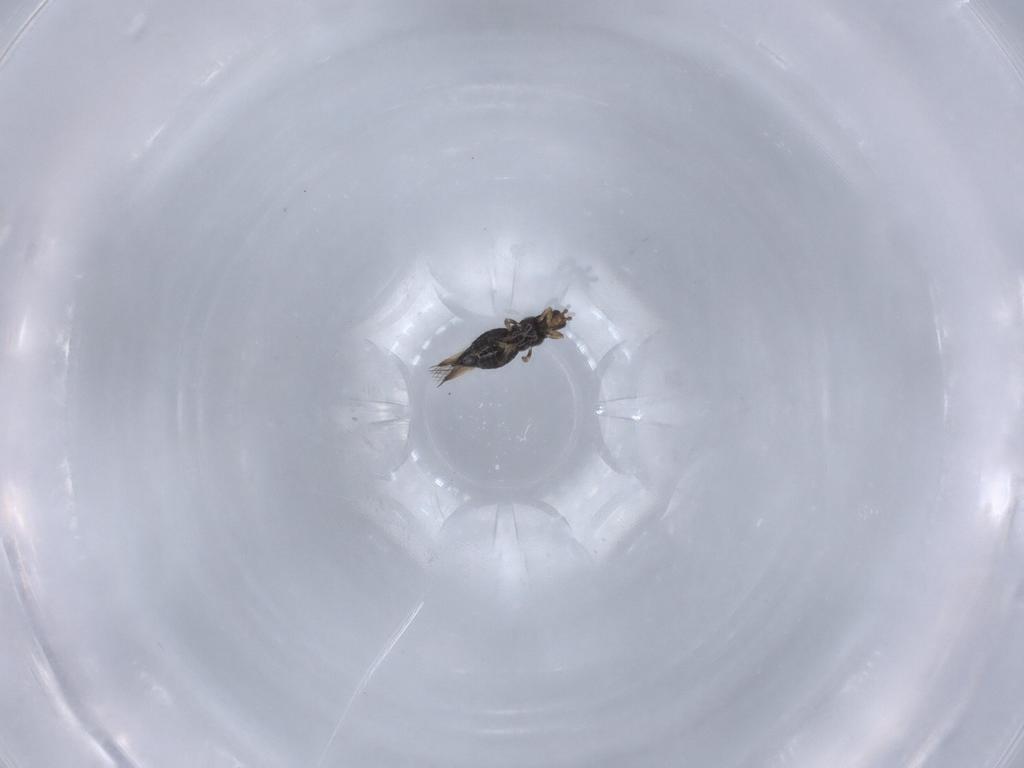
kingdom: Animalia
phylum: Arthropoda
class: Insecta
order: Thysanoptera
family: Thripidae
